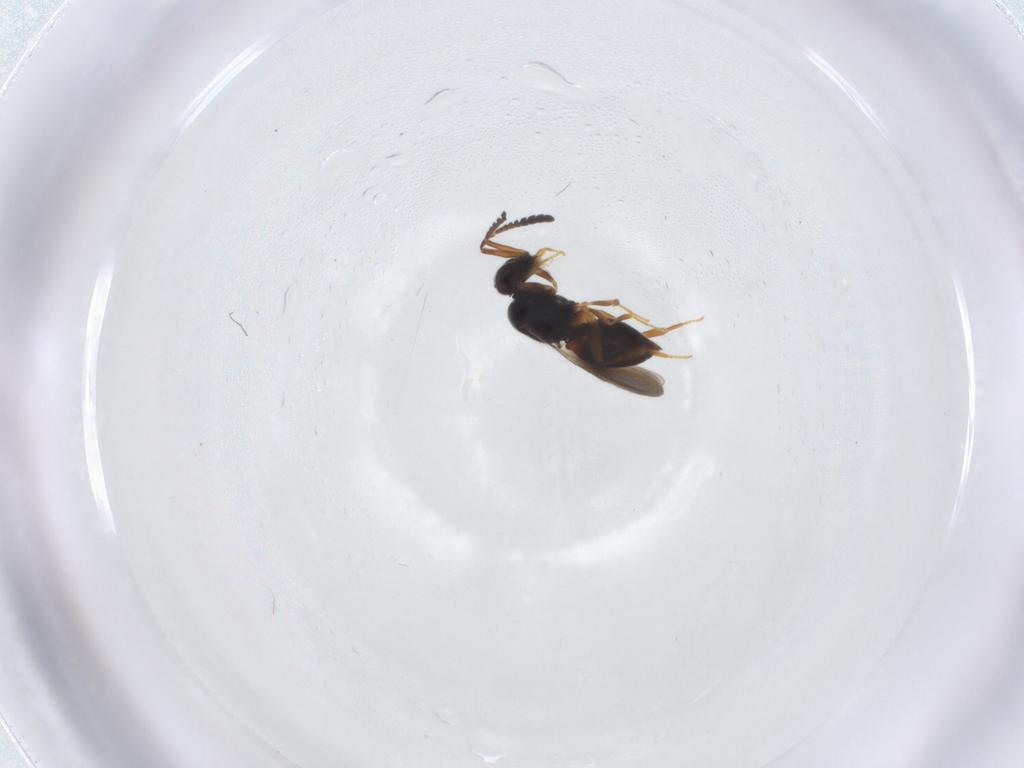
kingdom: Animalia
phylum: Arthropoda
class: Insecta
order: Hymenoptera
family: Ceraphronidae
